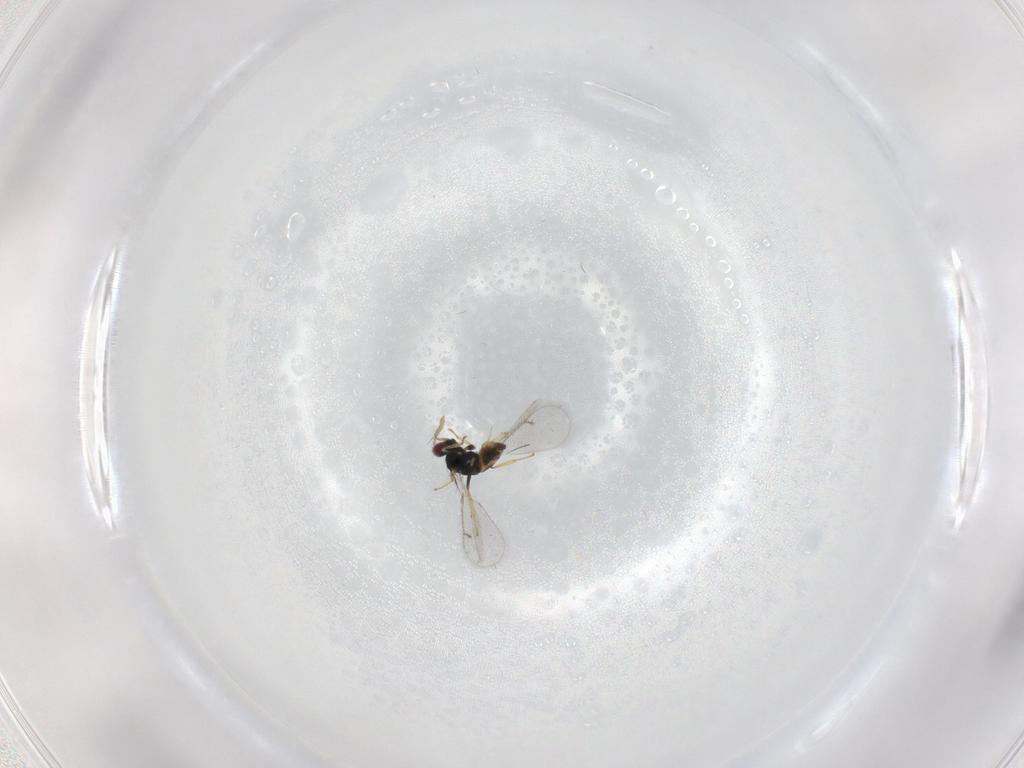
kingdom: Animalia
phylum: Arthropoda
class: Insecta
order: Hymenoptera
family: Eulophidae
